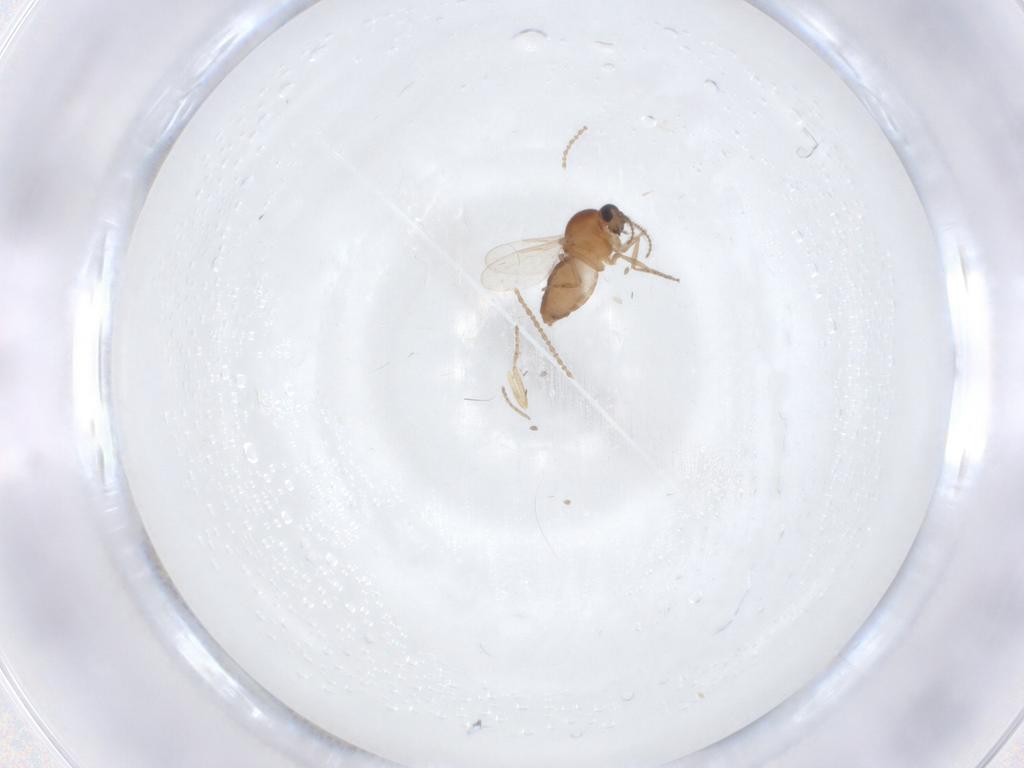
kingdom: Animalia
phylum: Arthropoda
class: Insecta
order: Diptera
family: Ceratopogonidae
